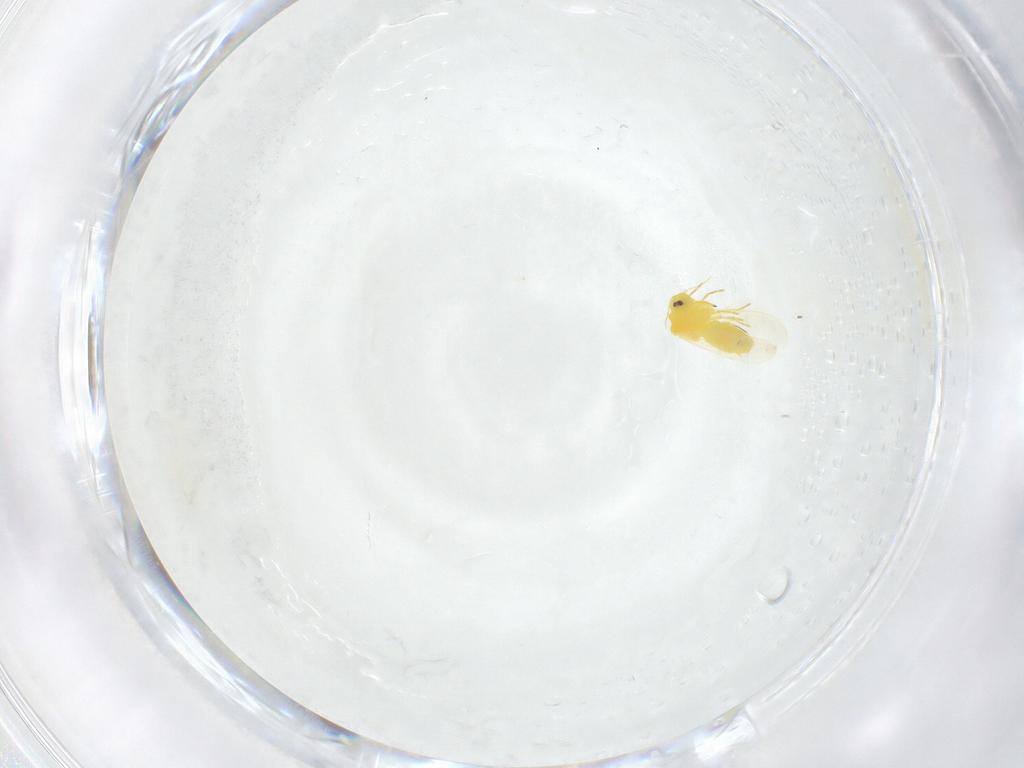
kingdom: Animalia
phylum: Arthropoda
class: Insecta
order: Hemiptera
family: Aleyrodidae
